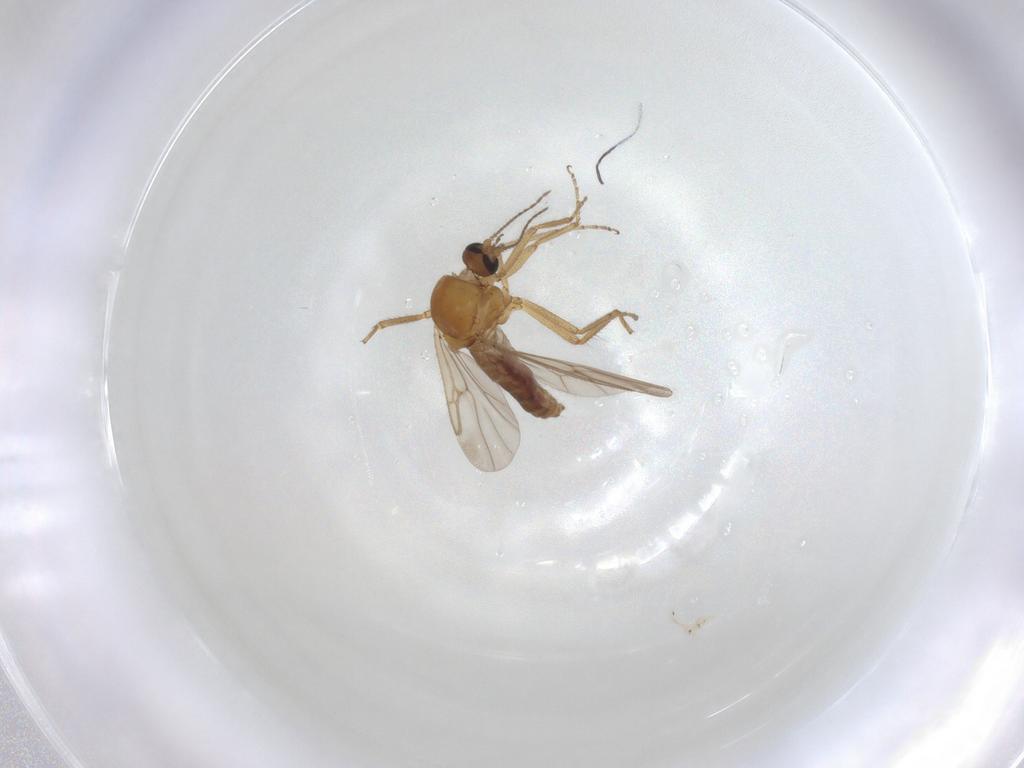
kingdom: Animalia
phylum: Arthropoda
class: Insecta
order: Diptera
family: Ceratopogonidae
